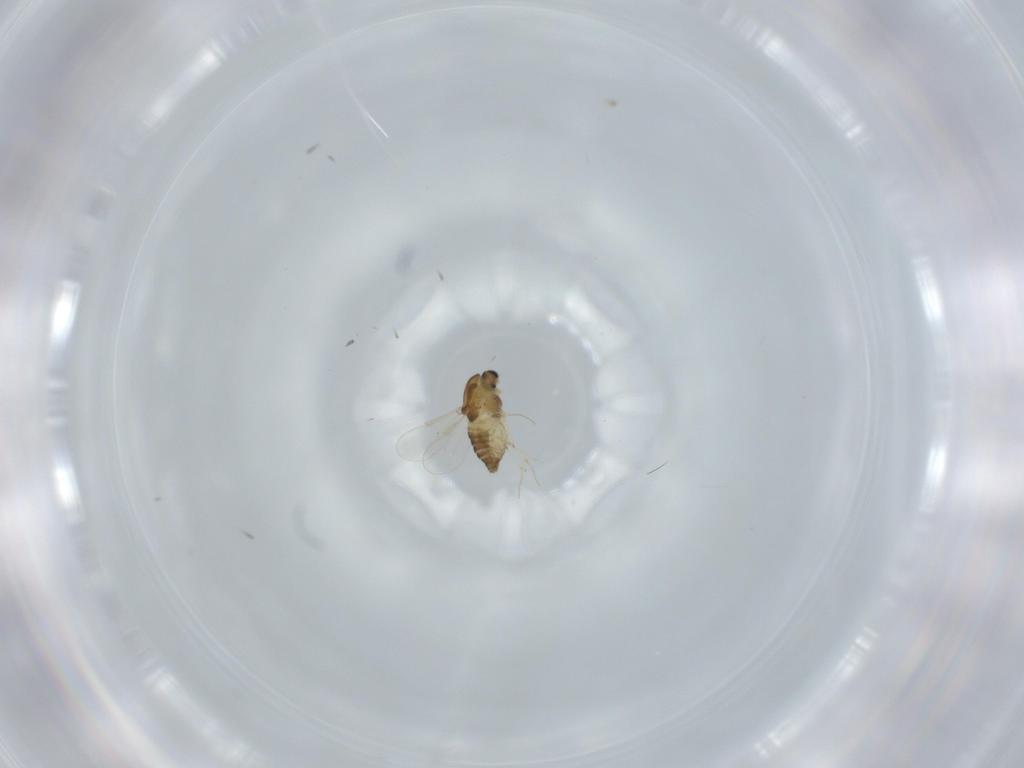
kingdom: Animalia
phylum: Arthropoda
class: Insecta
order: Diptera
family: Chironomidae
